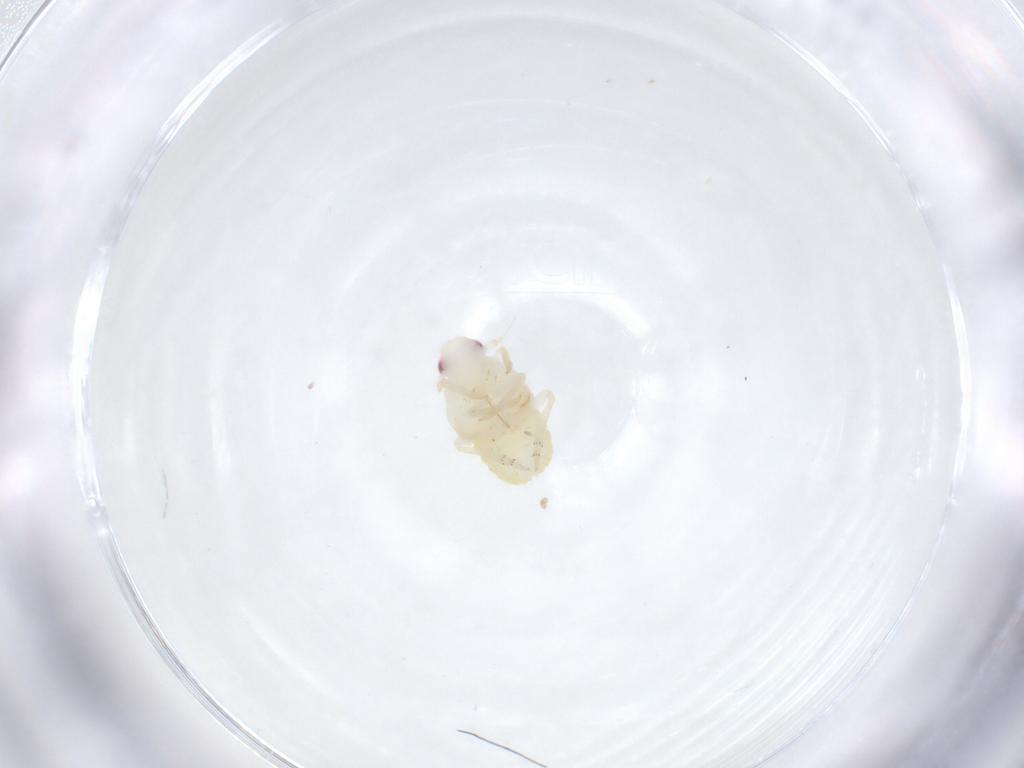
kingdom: Animalia
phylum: Arthropoda
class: Insecta
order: Hemiptera
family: Fulgoroidea_incertae_sedis
